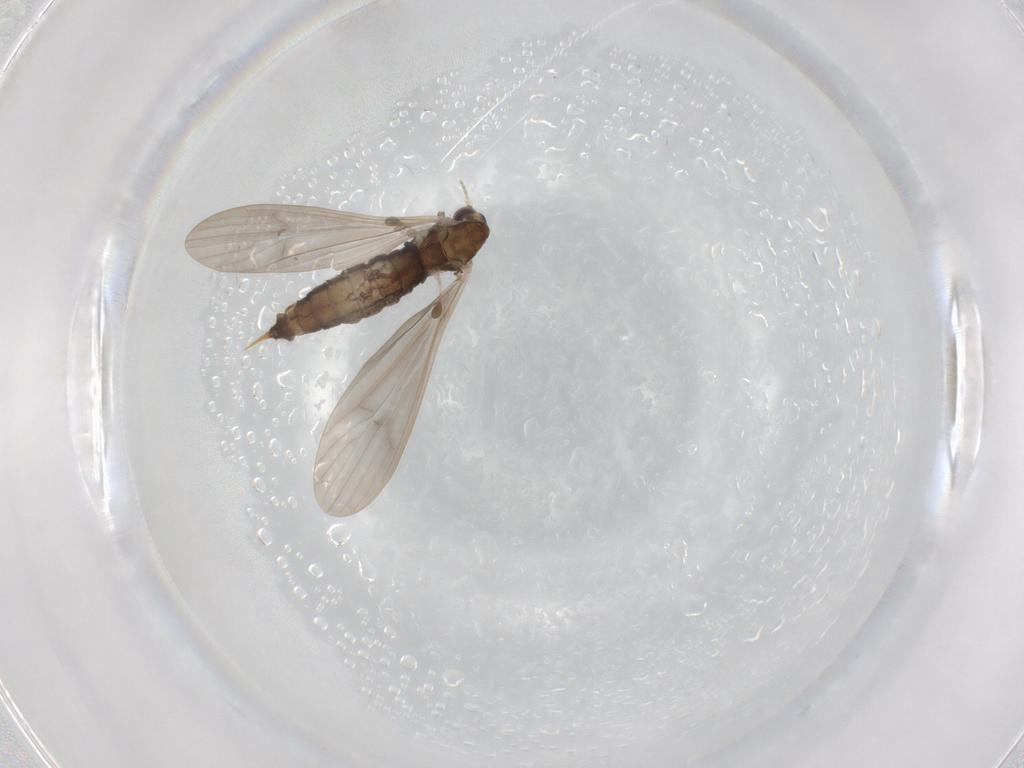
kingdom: Animalia
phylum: Arthropoda
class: Insecta
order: Diptera
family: Limoniidae
